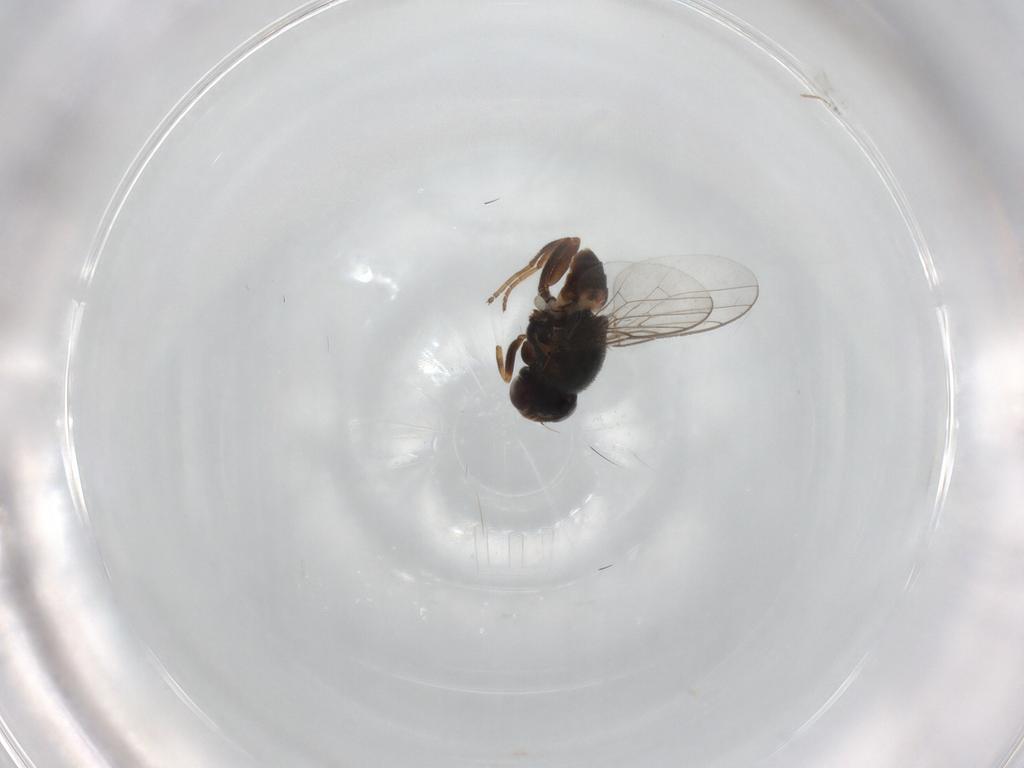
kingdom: Animalia
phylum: Arthropoda
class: Insecta
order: Diptera
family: Chloropidae
